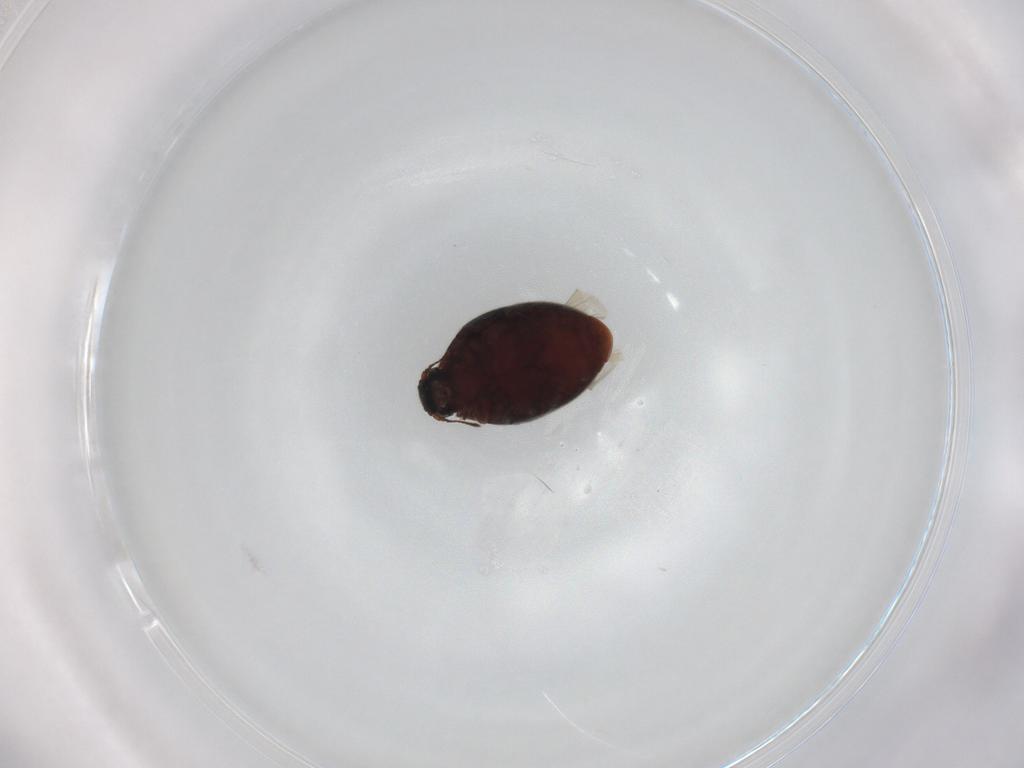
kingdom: Animalia
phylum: Arthropoda
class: Insecta
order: Coleoptera
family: Limnichidae
